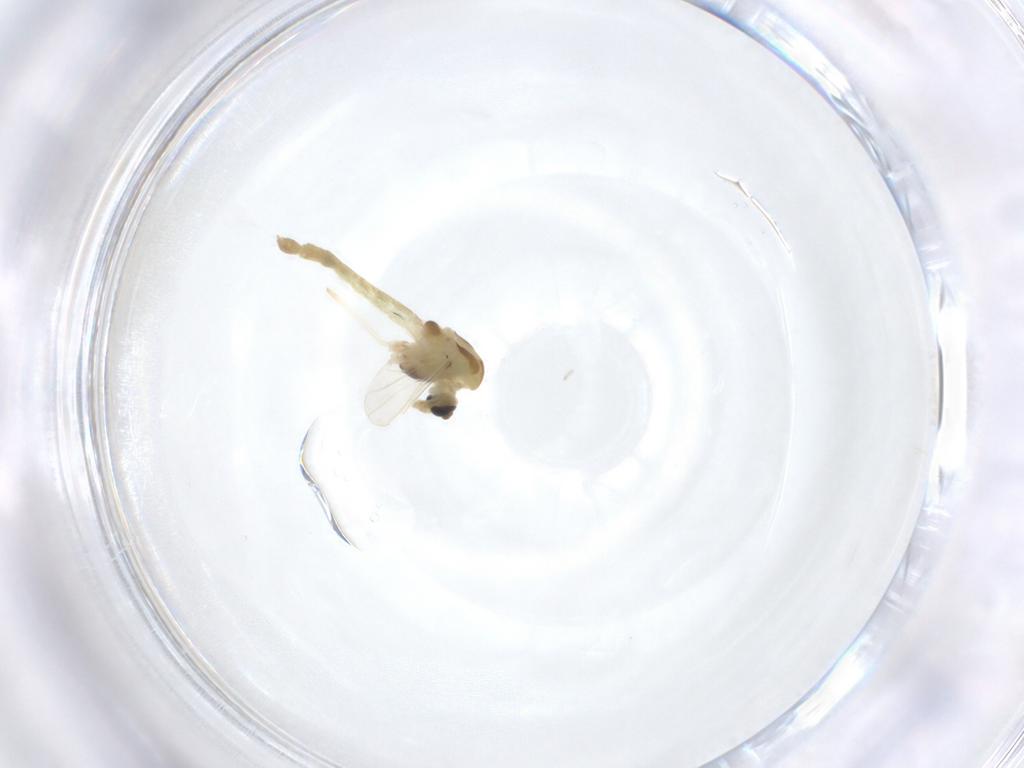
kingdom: Animalia
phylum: Arthropoda
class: Insecta
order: Diptera
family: Chironomidae
